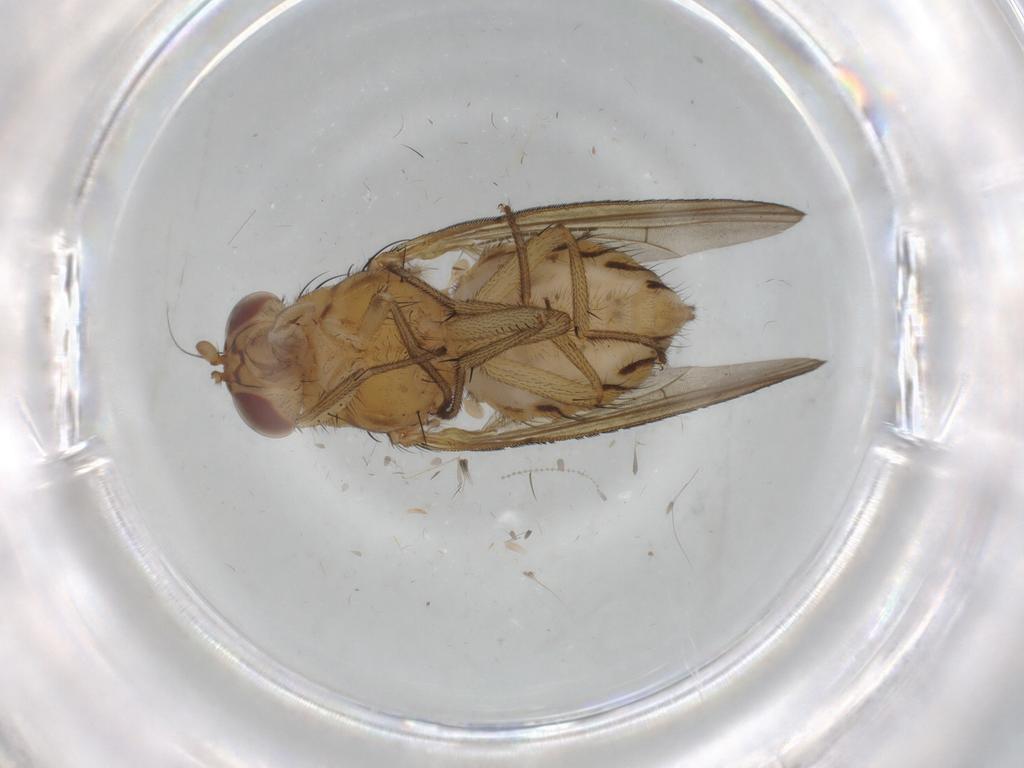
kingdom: Animalia
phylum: Arthropoda
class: Insecta
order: Diptera
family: Chironomidae
